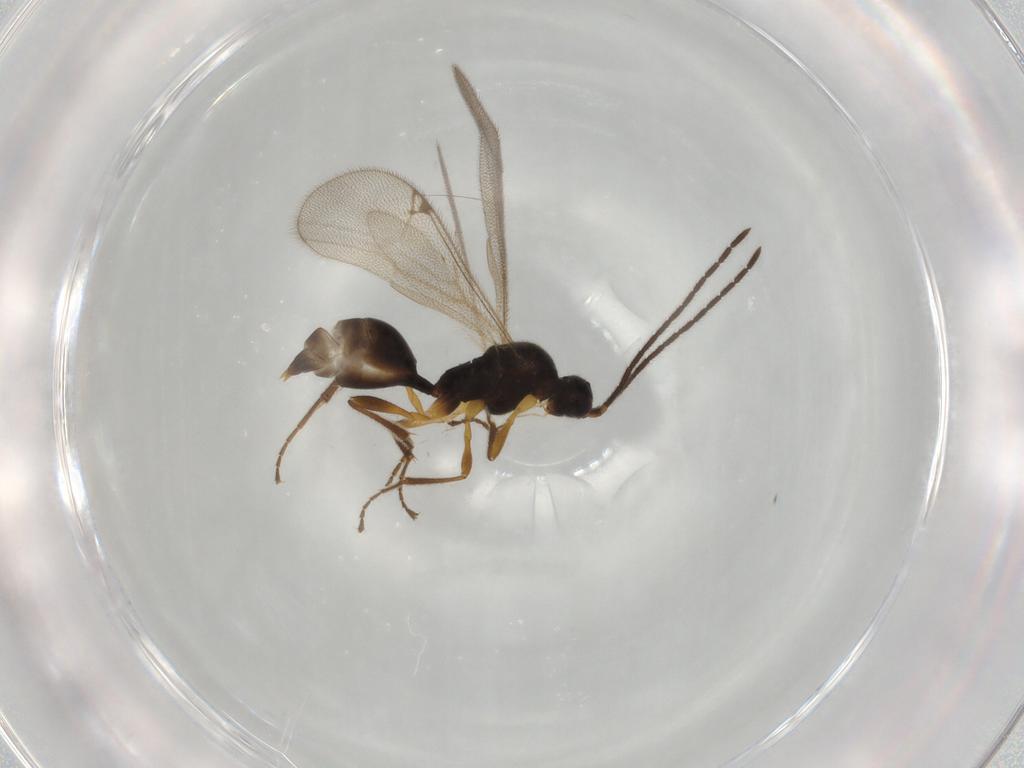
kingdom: Animalia
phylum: Arthropoda
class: Insecta
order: Hymenoptera
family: Proctotrupidae
